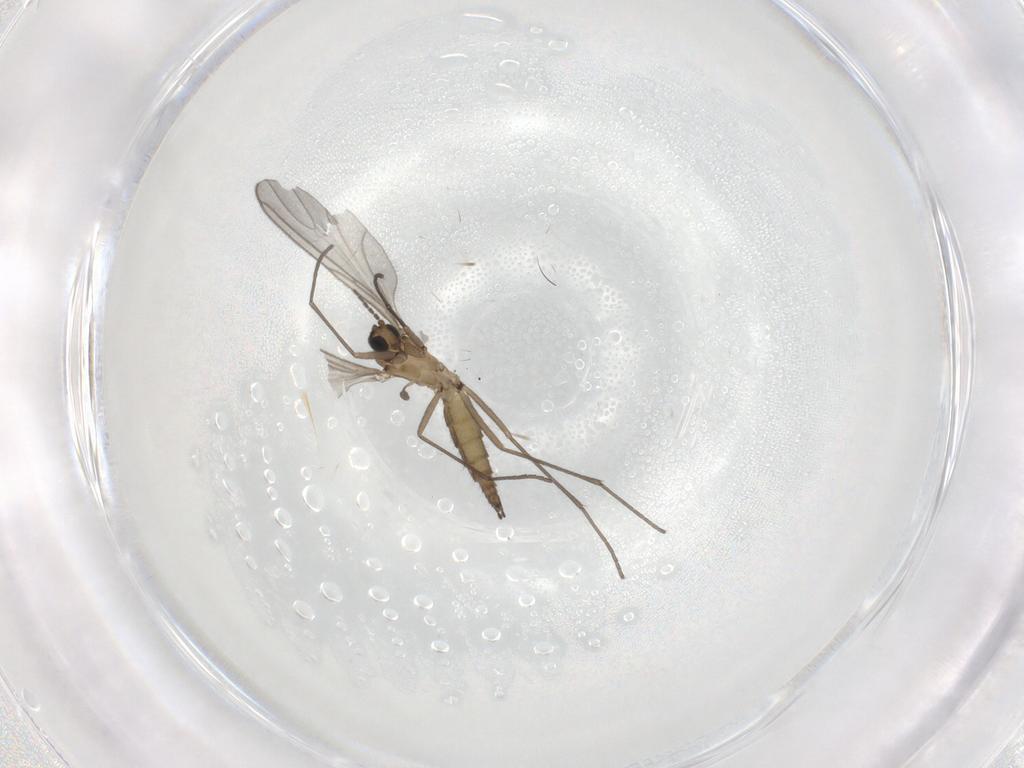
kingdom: Animalia
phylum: Arthropoda
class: Insecta
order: Diptera
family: Sciaridae
